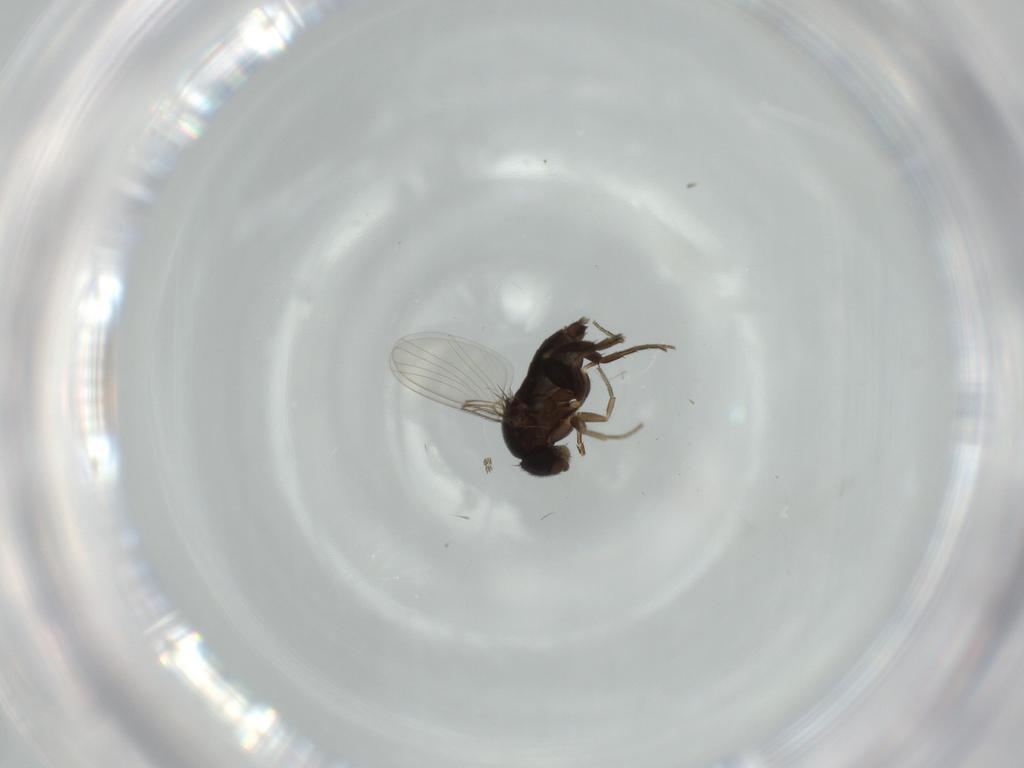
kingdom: Animalia
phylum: Arthropoda
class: Insecta
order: Diptera
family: Phoridae
